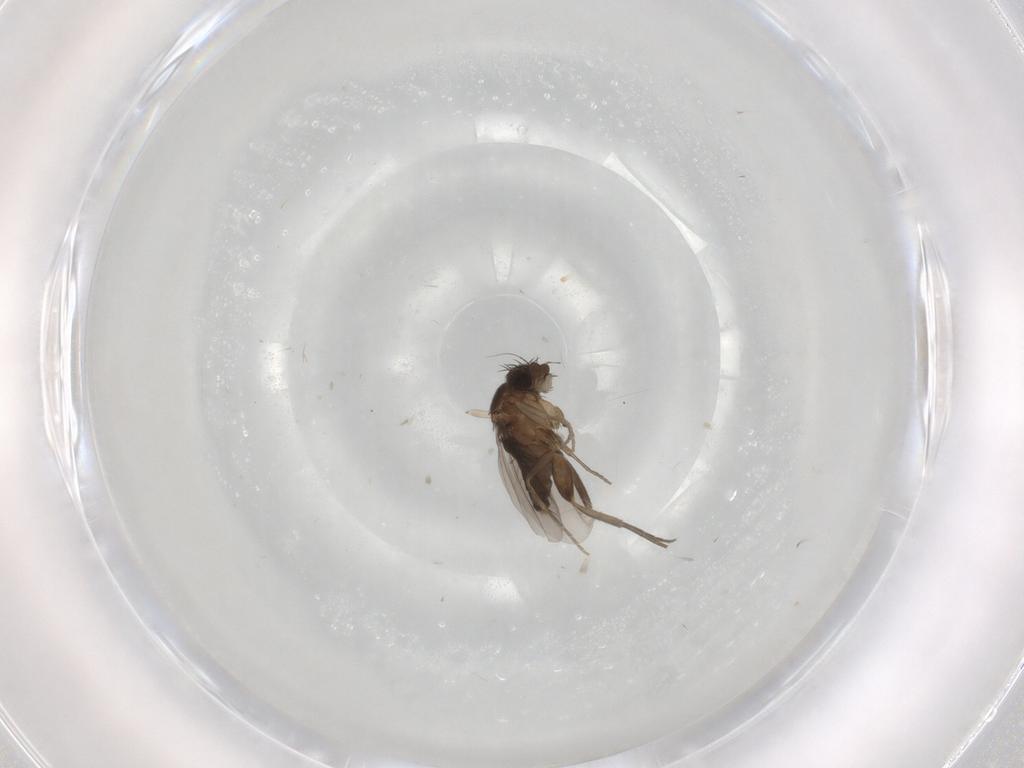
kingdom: Animalia
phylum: Arthropoda
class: Insecta
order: Diptera
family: Phoridae
